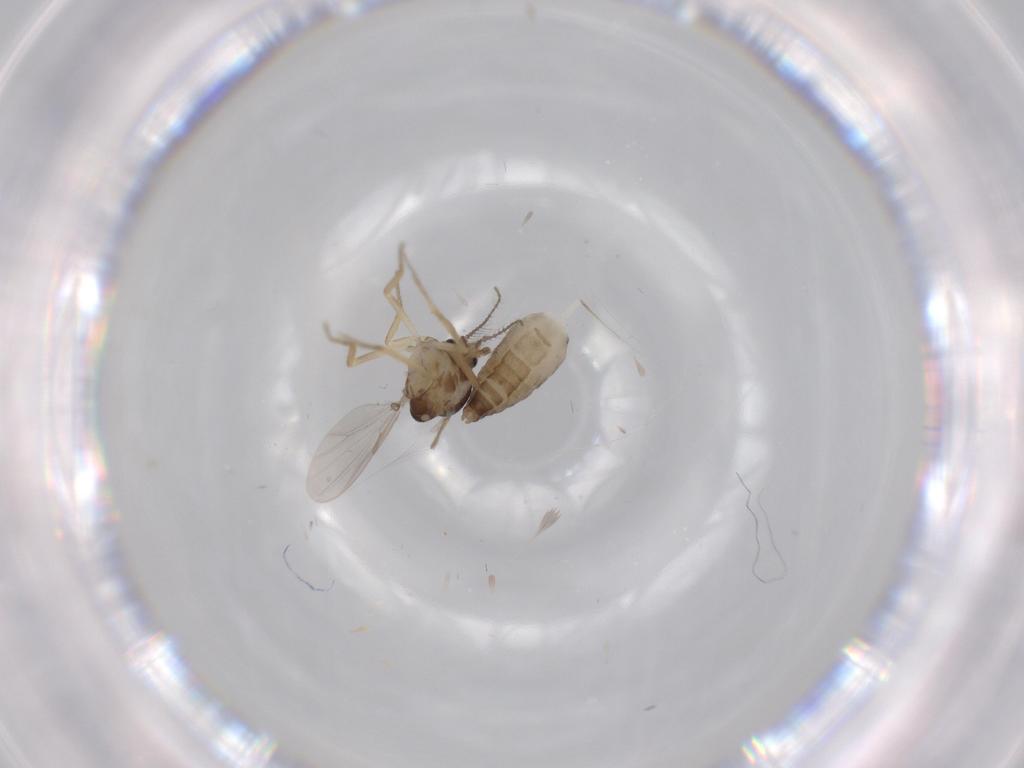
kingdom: Animalia
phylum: Arthropoda
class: Insecta
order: Diptera
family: Ceratopogonidae
